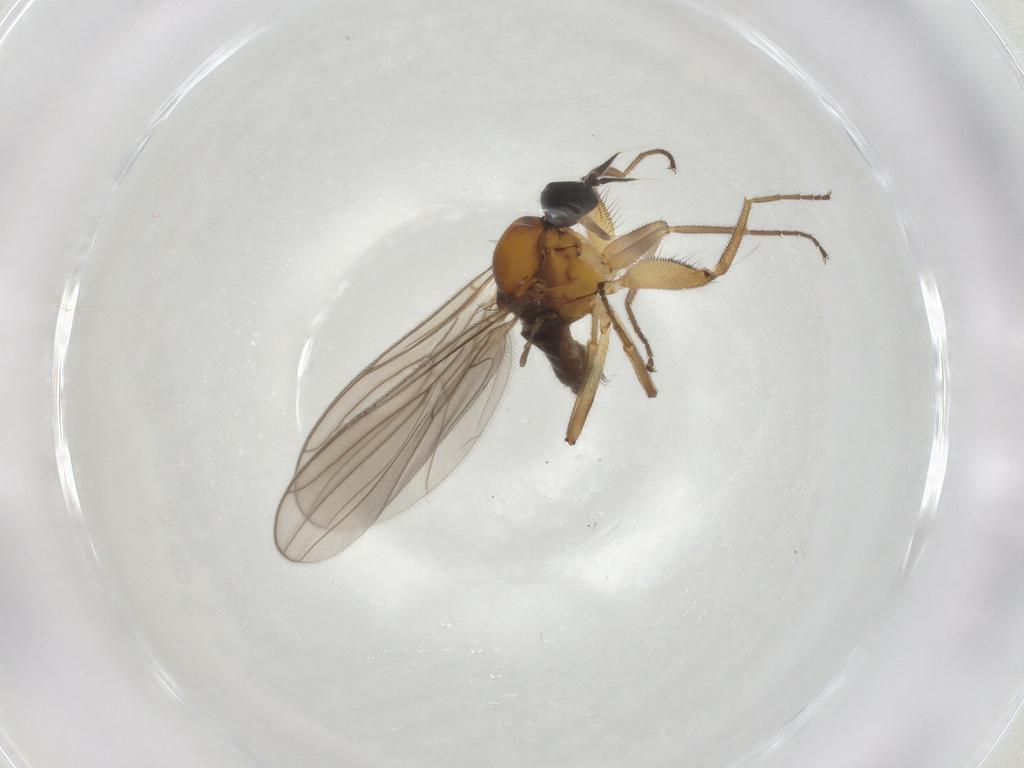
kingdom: Animalia
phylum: Arthropoda
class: Insecta
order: Diptera
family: Hybotidae
